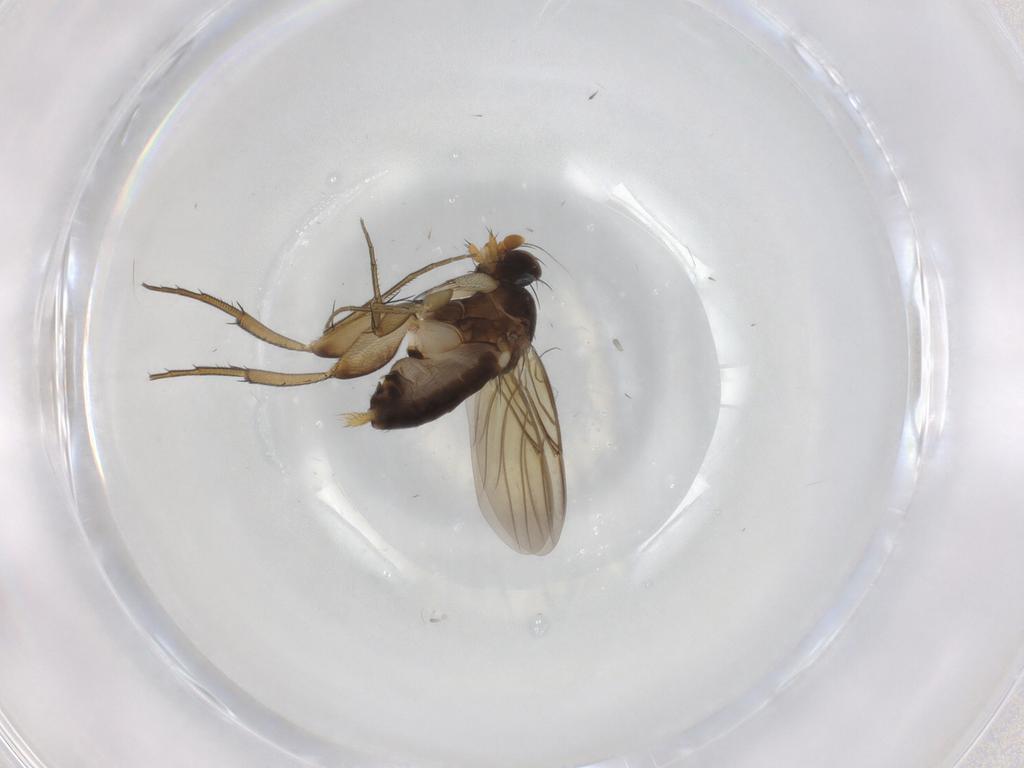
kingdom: Animalia
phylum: Arthropoda
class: Insecta
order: Diptera
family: Phoridae
